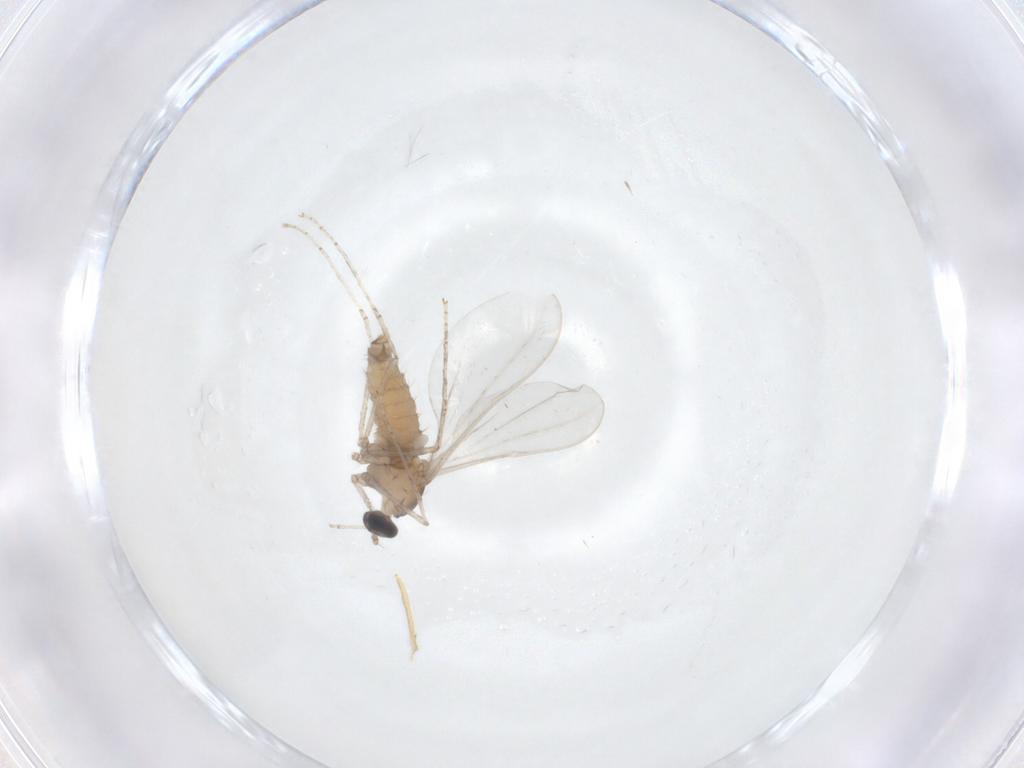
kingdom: Animalia
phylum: Arthropoda
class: Insecta
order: Diptera
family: Cecidomyiidae
